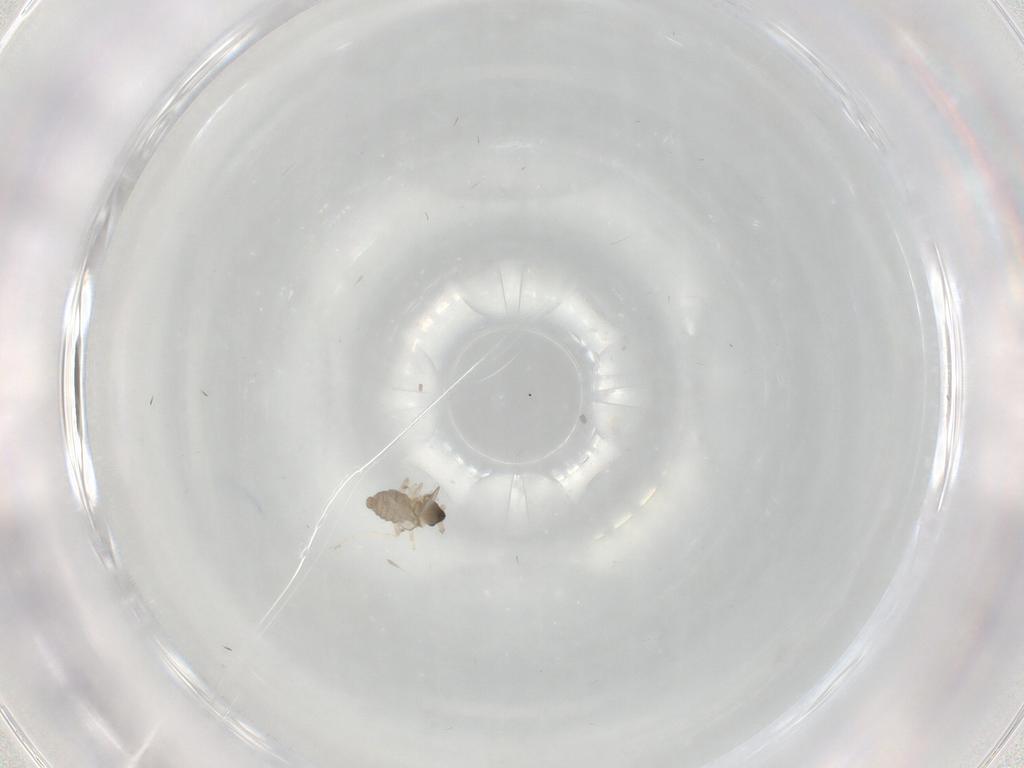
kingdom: Animalia
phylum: Arthropoda
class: Insecta
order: Diptera
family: Cecidomyiidae
